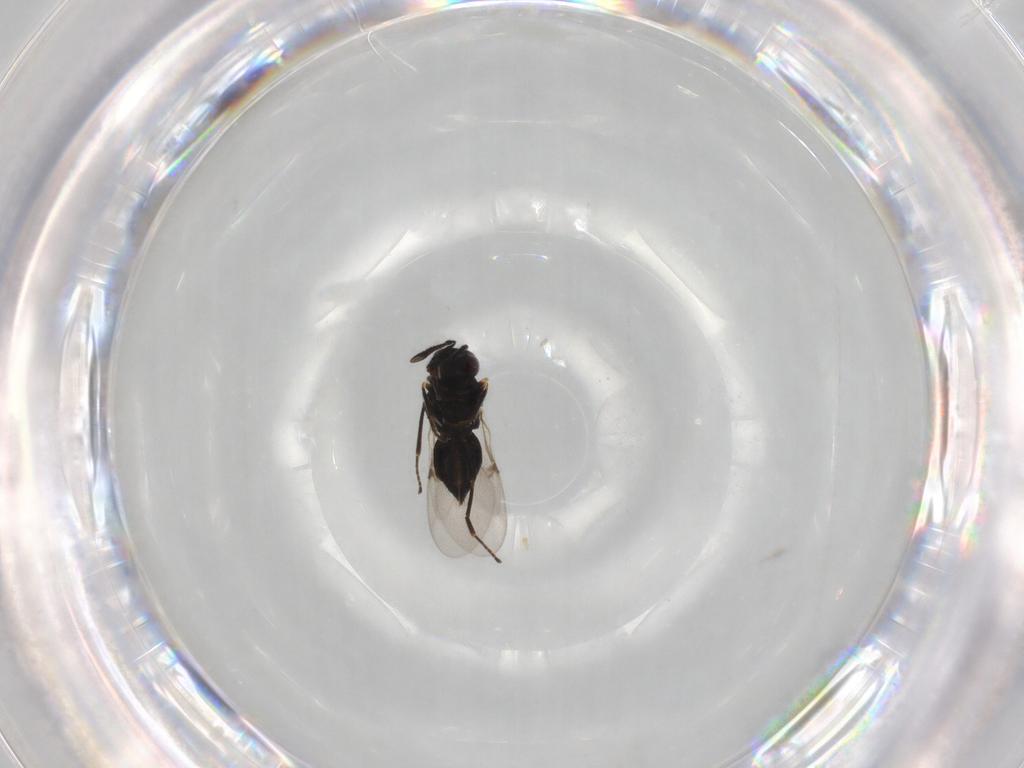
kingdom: Animalia
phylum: Arthropoda
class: Insecta
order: Hymenoptera
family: Encyrtidae
